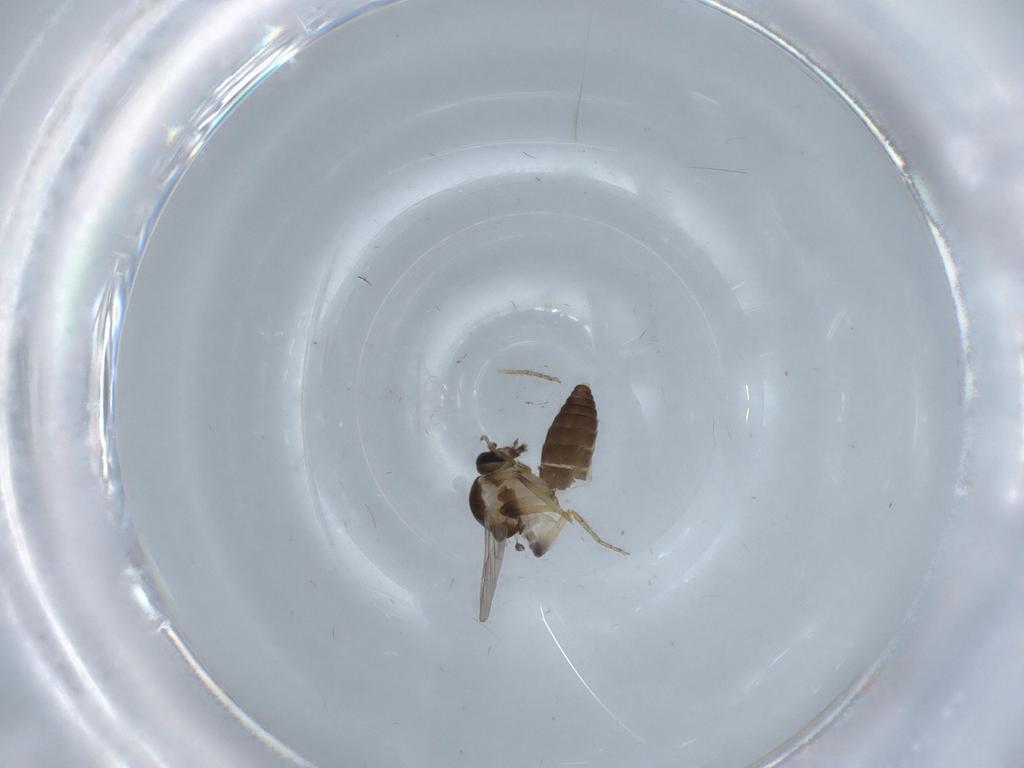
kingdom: Animalia
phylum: Arthropoda
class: Insecta
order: Diptera
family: Ceratopogonidae
